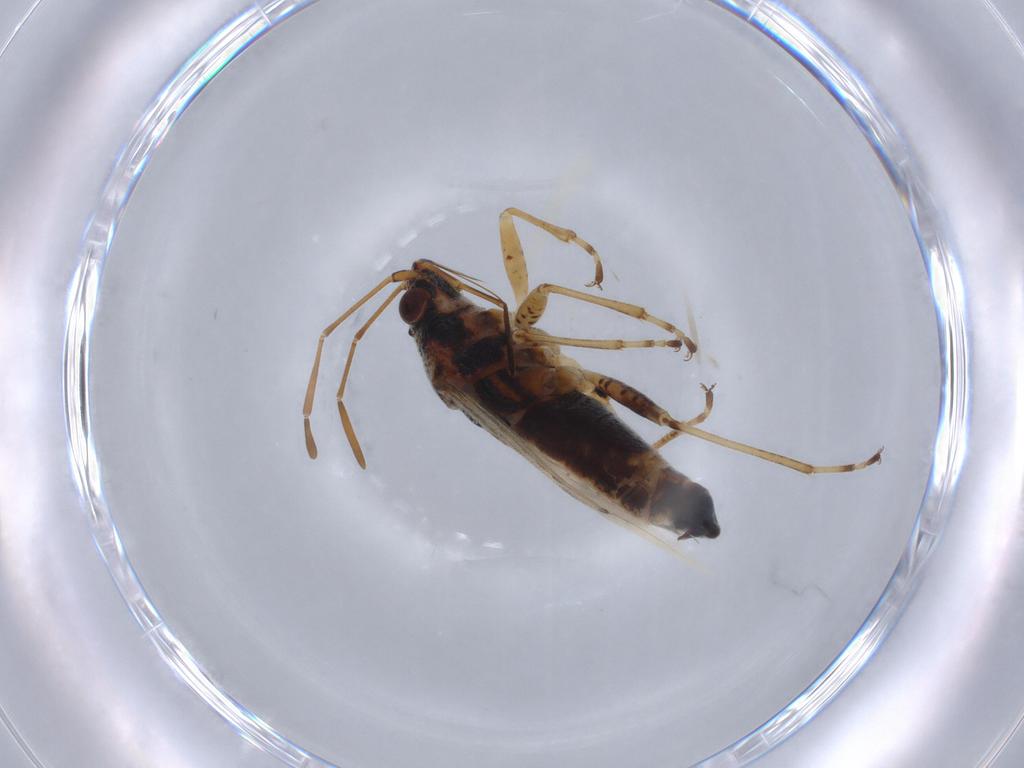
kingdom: Animalia
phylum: Arthropoda
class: Insecta
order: Hemiptera
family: Lygaeidae
